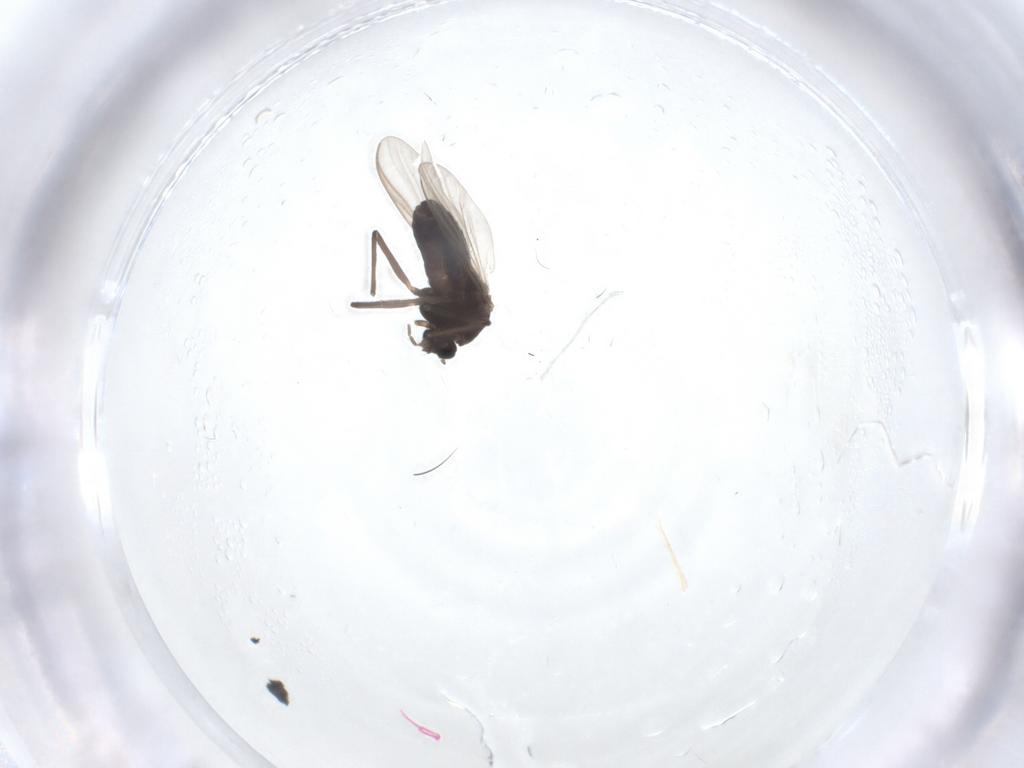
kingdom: Animalia
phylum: Arthropoda
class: Insecta
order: Diptera
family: Chironomidae
